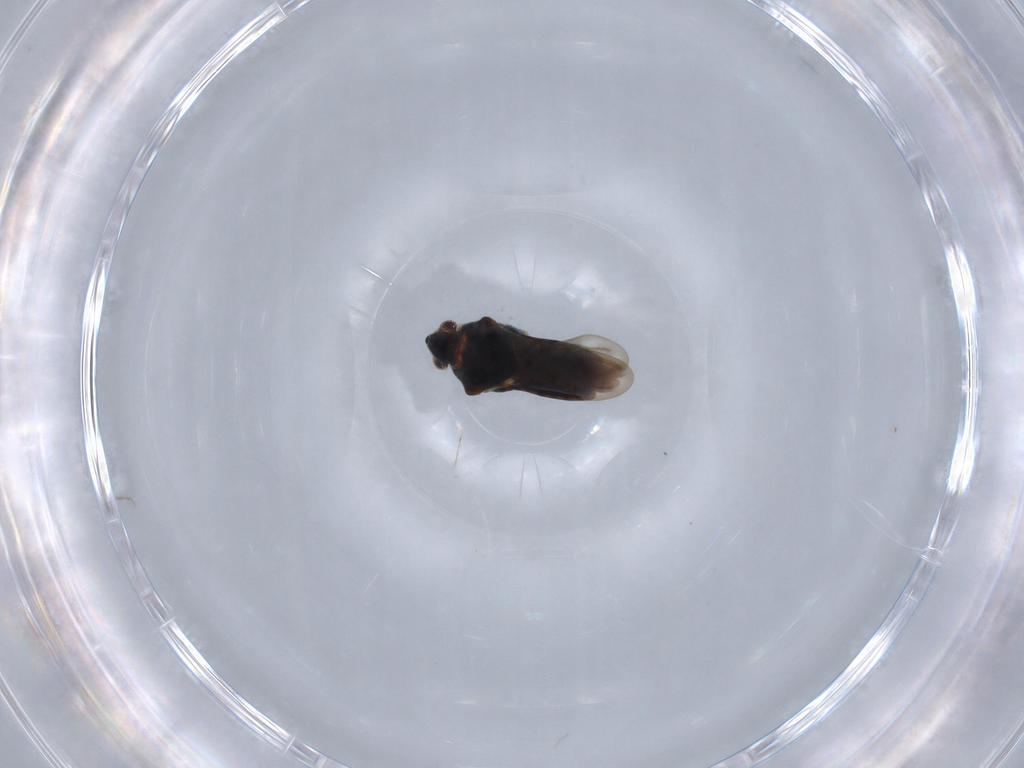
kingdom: Animalia
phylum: Arthropoda
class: Insecta
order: Hemiptera
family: Veliidae
